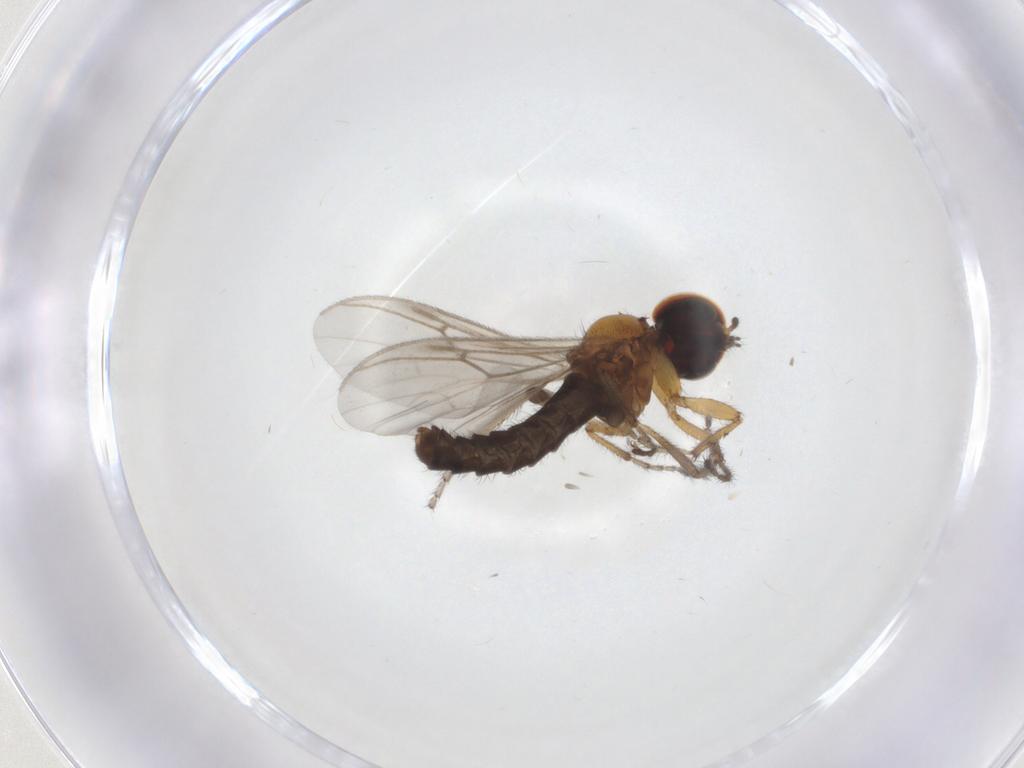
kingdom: Animalia
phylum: Arthropoda
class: Insecta
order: Diptera
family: Bibionidae
